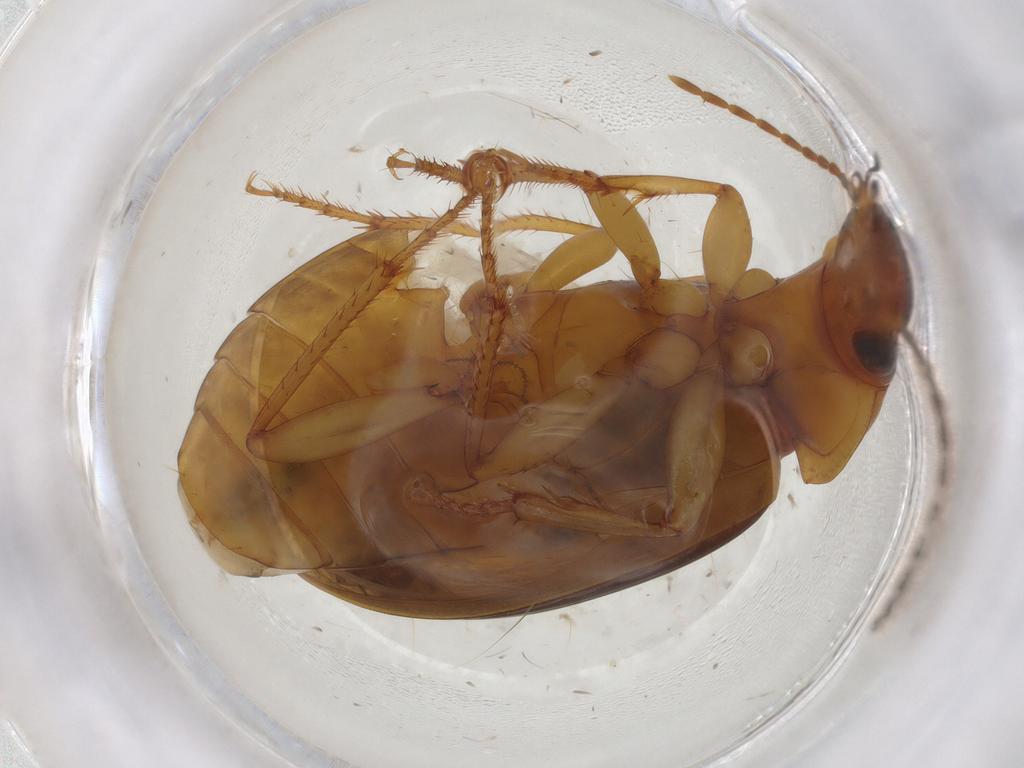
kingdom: Animalia
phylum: Arthropoda
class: Insecta
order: Coleoptera
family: Carabidae
